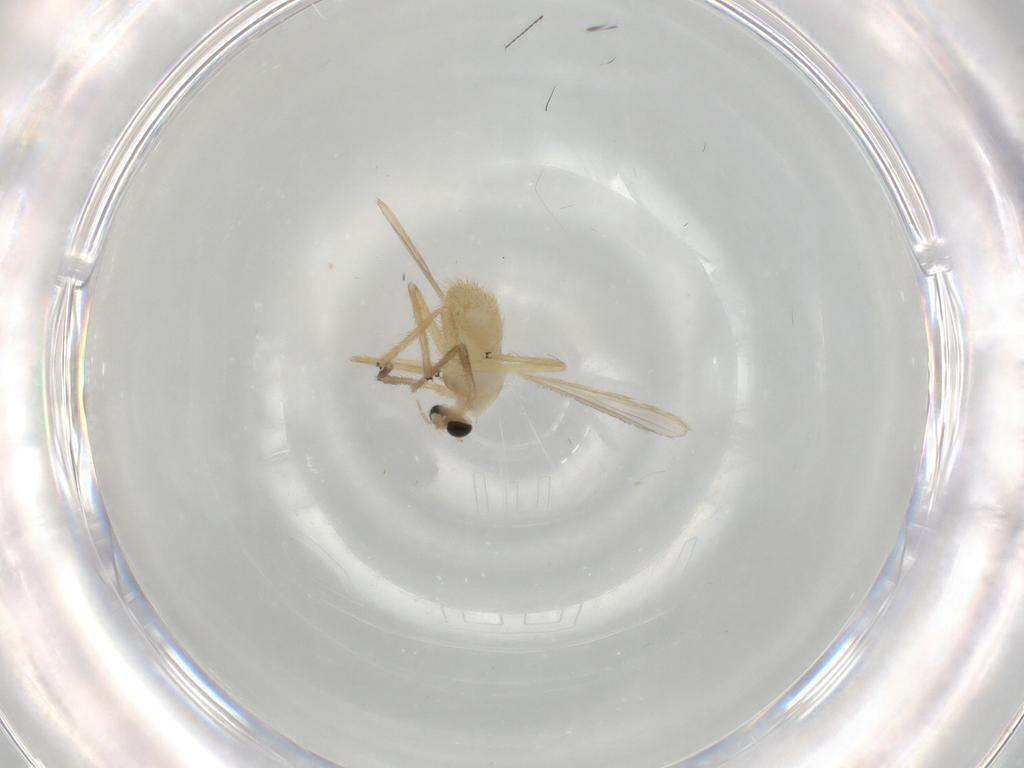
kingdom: Animalia
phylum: Arthropoda
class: Insecta
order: Diptera
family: Chironomidae
